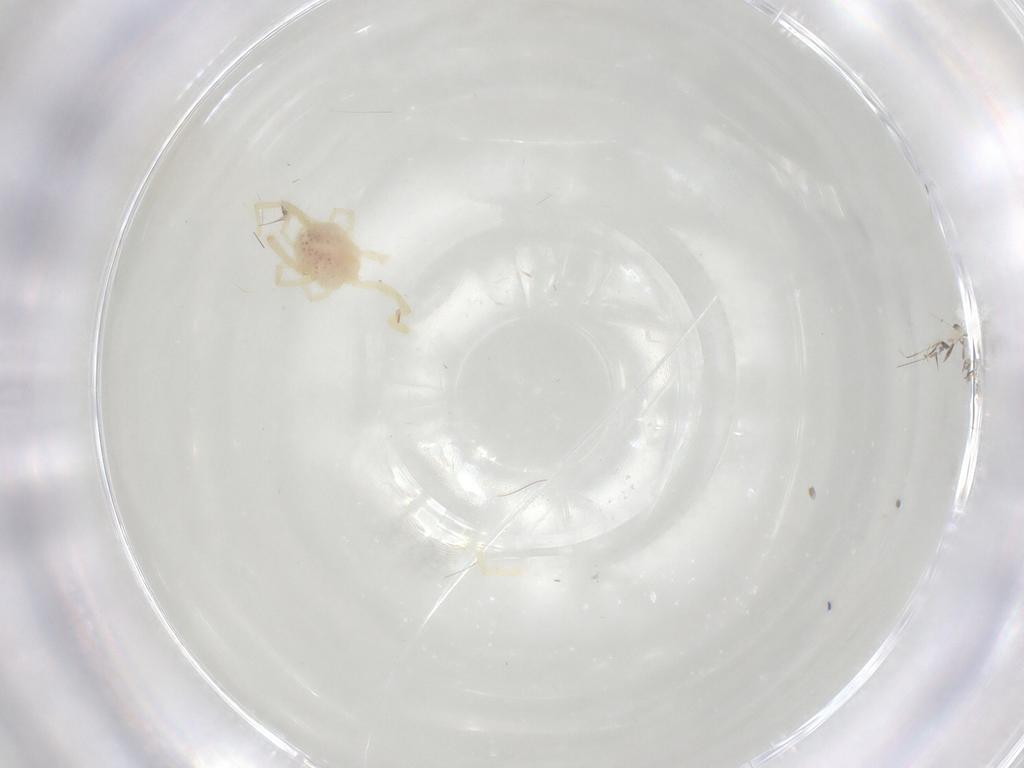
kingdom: Animalia
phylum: Arthropoda
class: Arachnida
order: Trombidiformes
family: Erythraeidae
